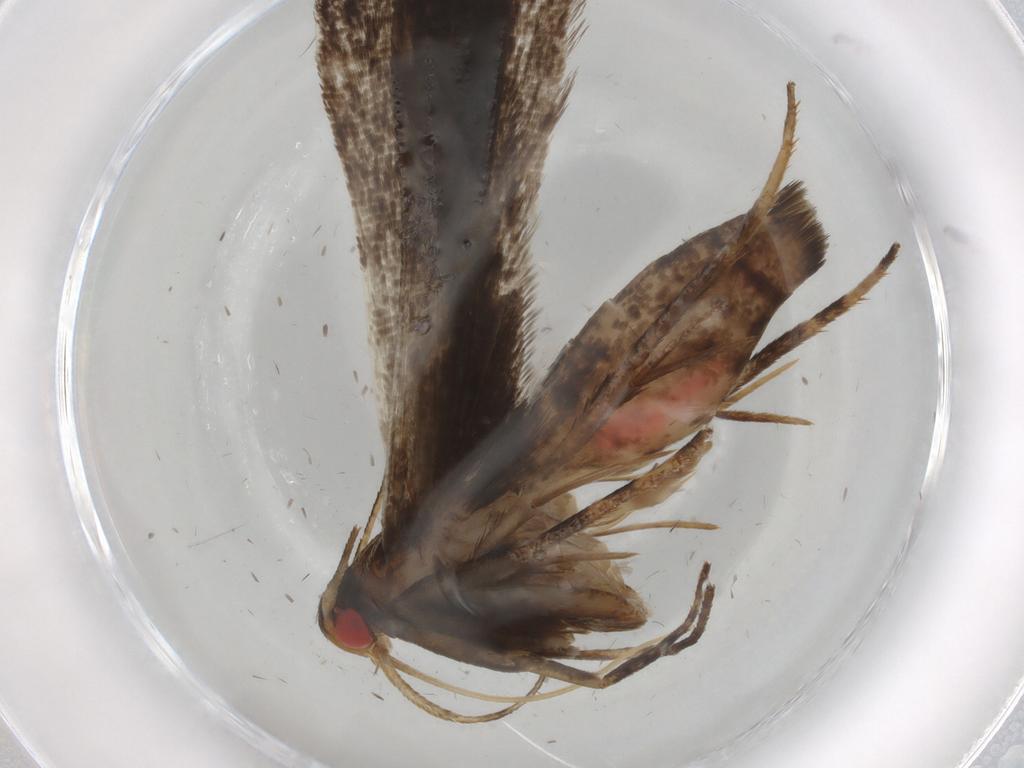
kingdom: Animalia
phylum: Arthropoda
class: Insecta
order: Lepidoptera
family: Gelechiidae
